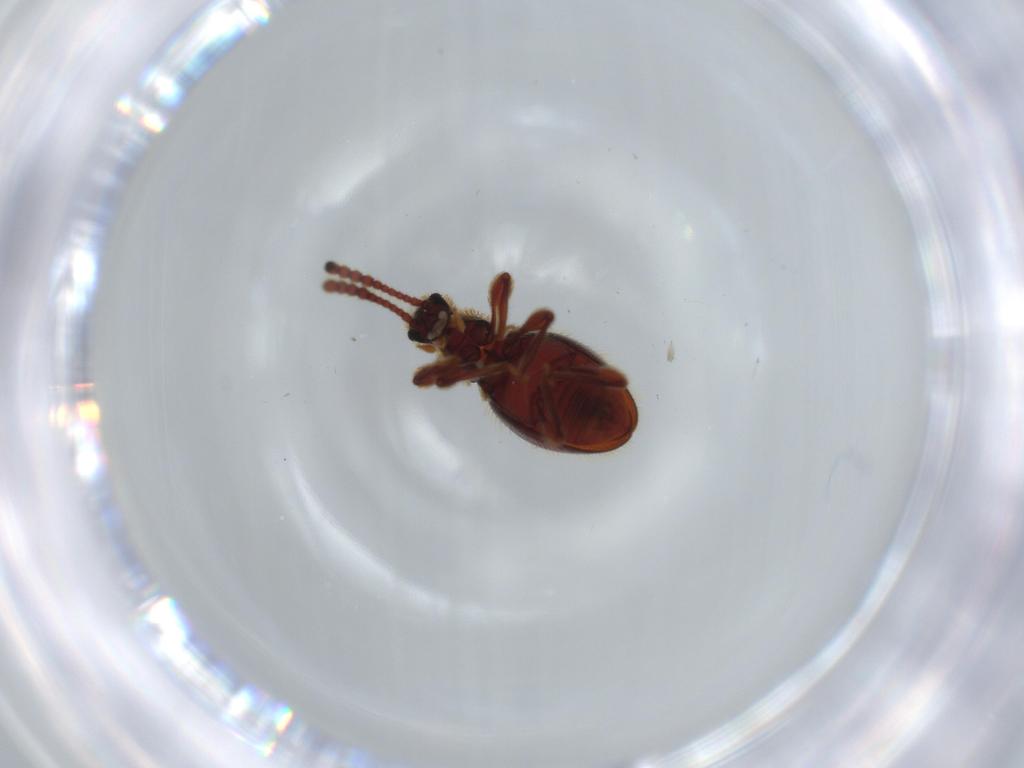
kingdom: Animalia
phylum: Arthropoda
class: Insecta
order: Coleoptera
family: Staphylinidae
